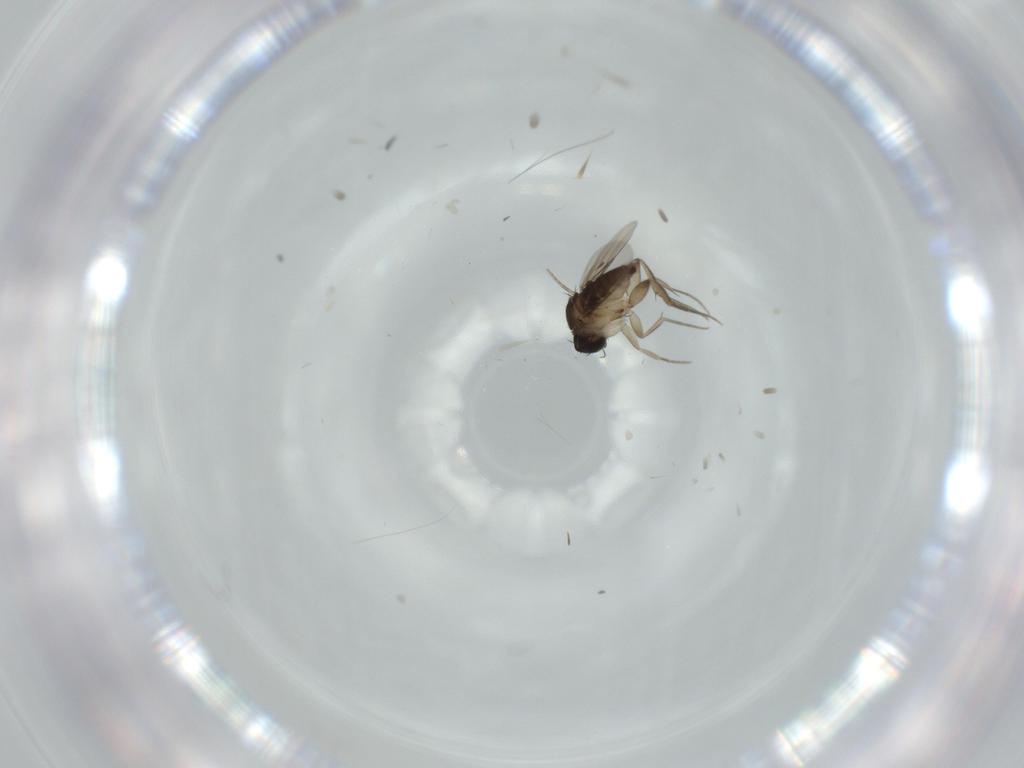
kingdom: Animalia
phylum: Arthropoda
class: Insecta
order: Diptera
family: Phoridae
